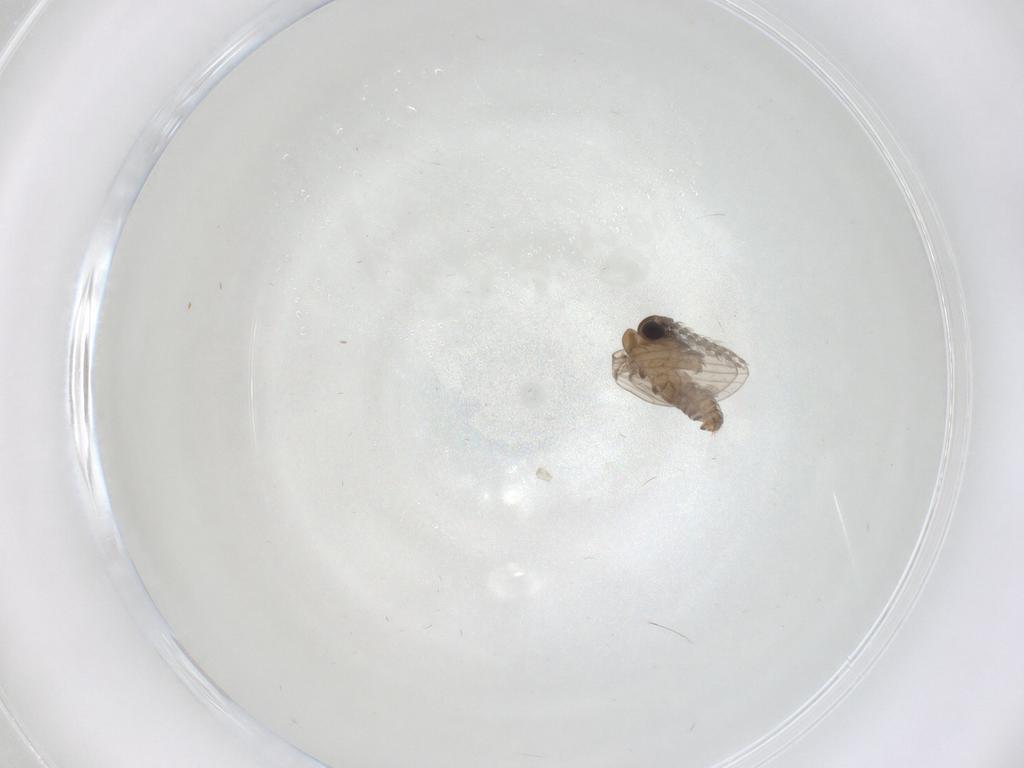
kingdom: Animalia
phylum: Arthropoda
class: Insecta
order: Diptera
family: Psychodidae
